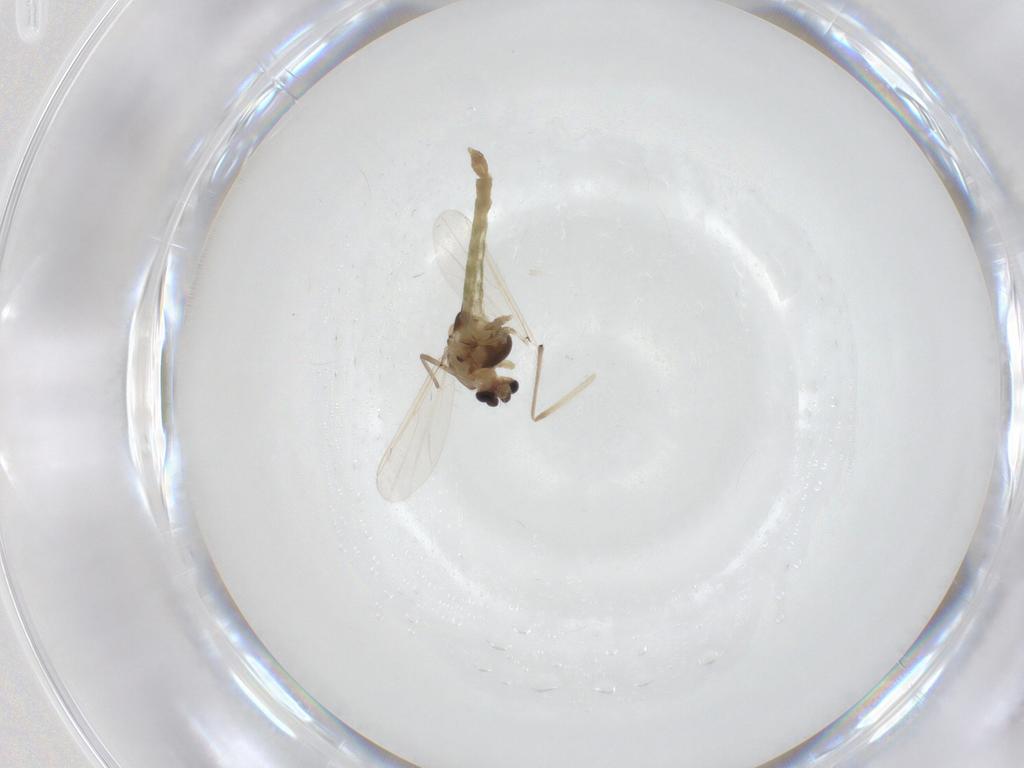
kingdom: Animalia
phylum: Arthropoda
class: Insecta
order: Diptera
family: Chironomidae
